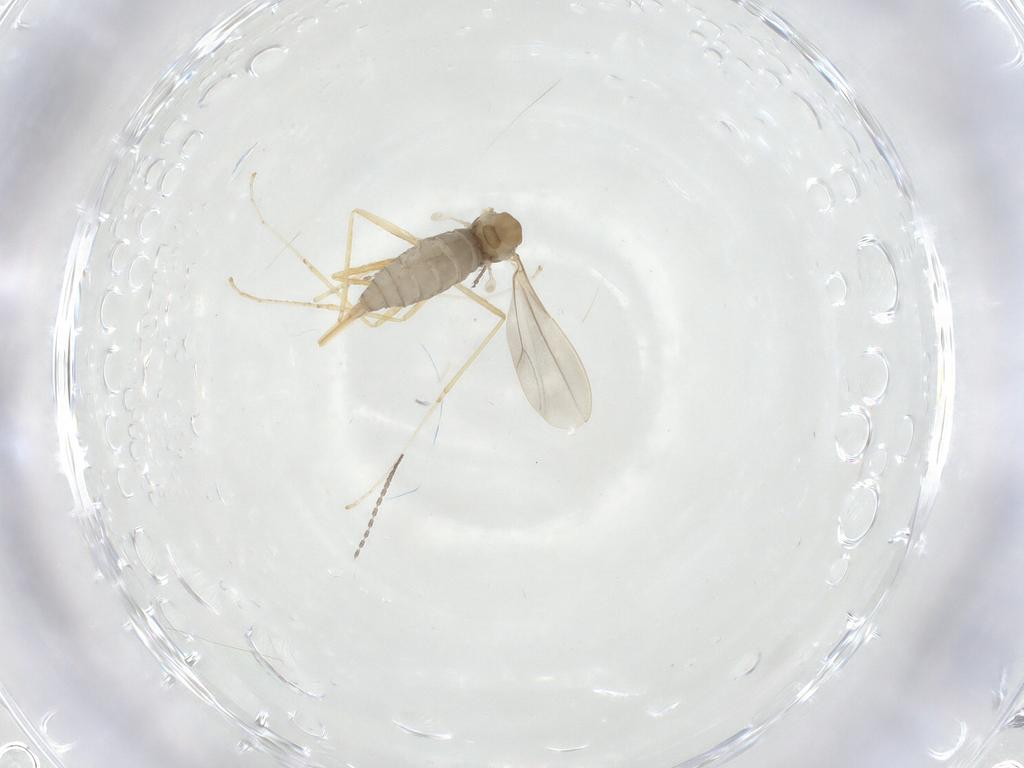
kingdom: Animalia
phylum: Arthropoda
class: Insecta
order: Diptera
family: Cecidomyiidae
